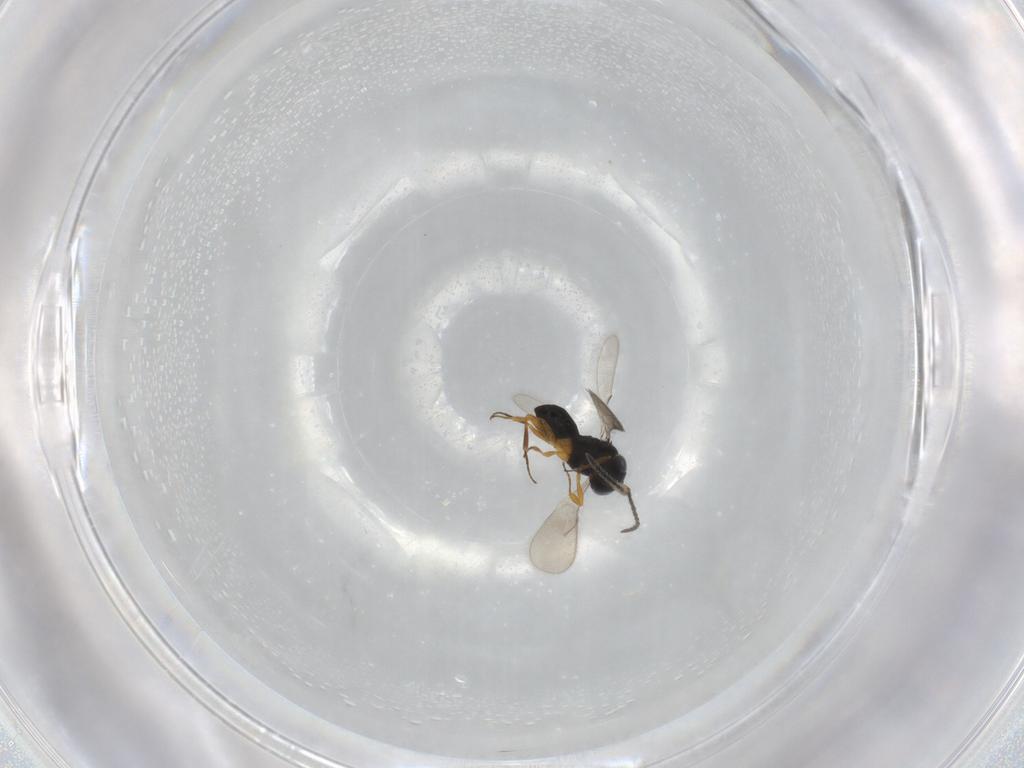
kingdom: Animalia
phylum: Arthropoda
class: Insecta
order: Hymenoptera
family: Scelionidae
